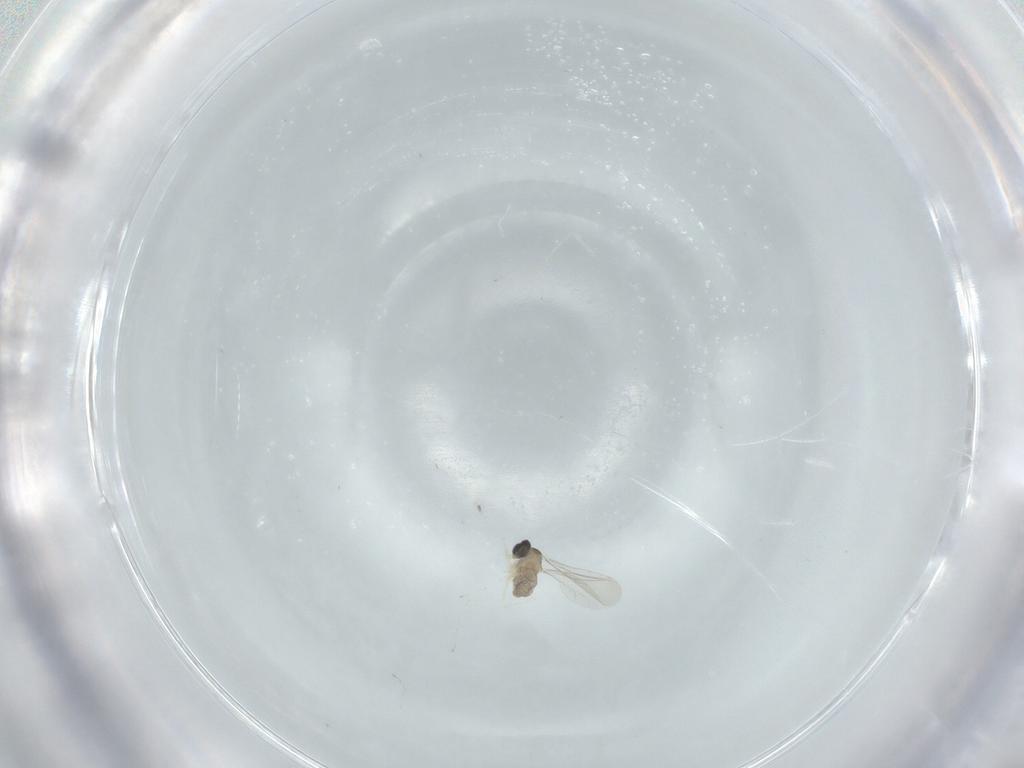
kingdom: Animalia
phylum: Arthropoda
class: Insecta
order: Diptera
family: Cecidomyiidae
